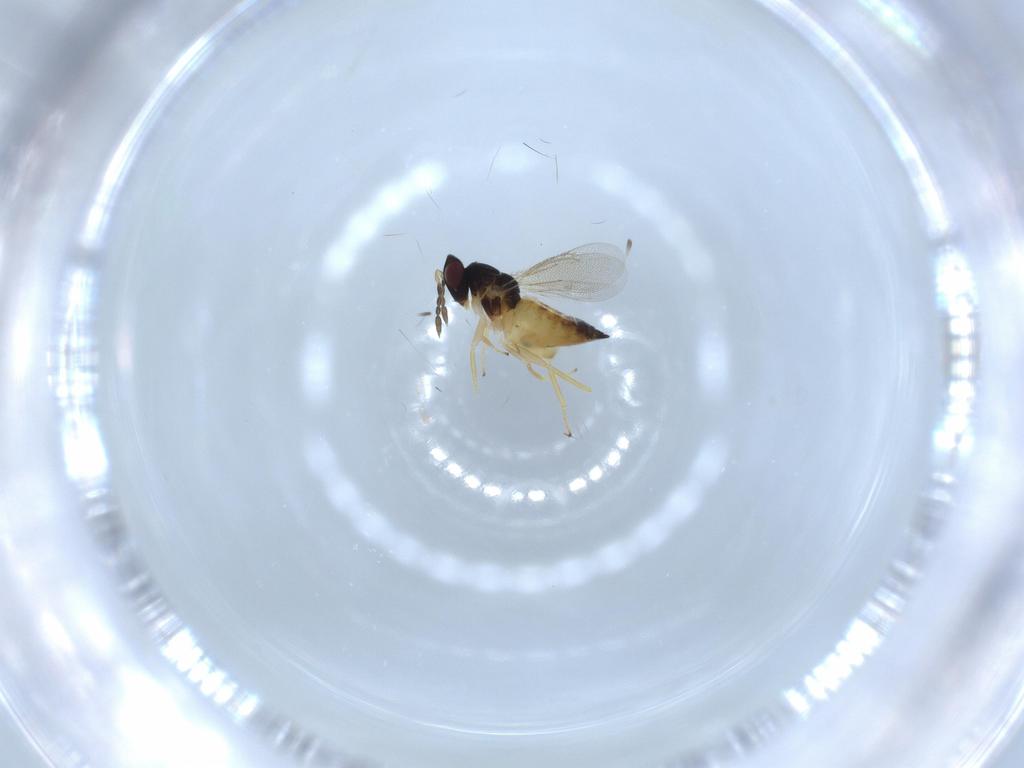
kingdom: Animalia
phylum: Arthropoda
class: Insecta
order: Hymenoptera
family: Eulophidae
